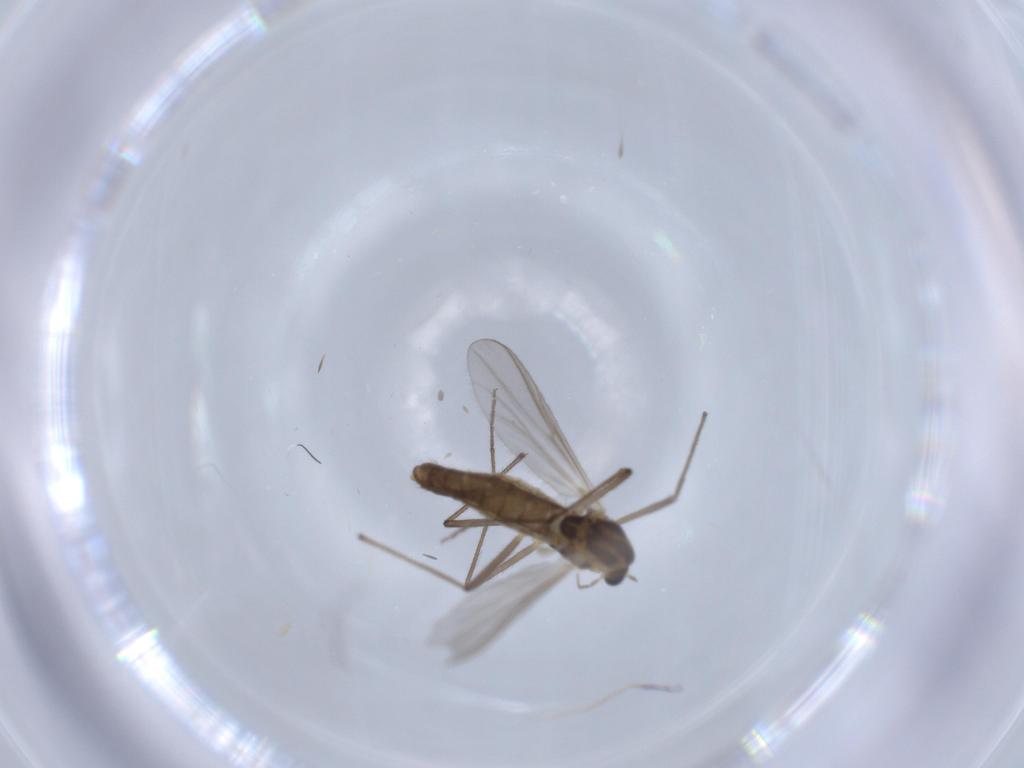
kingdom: Animalia
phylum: Arthropoda
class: Insecta
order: Diptera
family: Chironomidae
